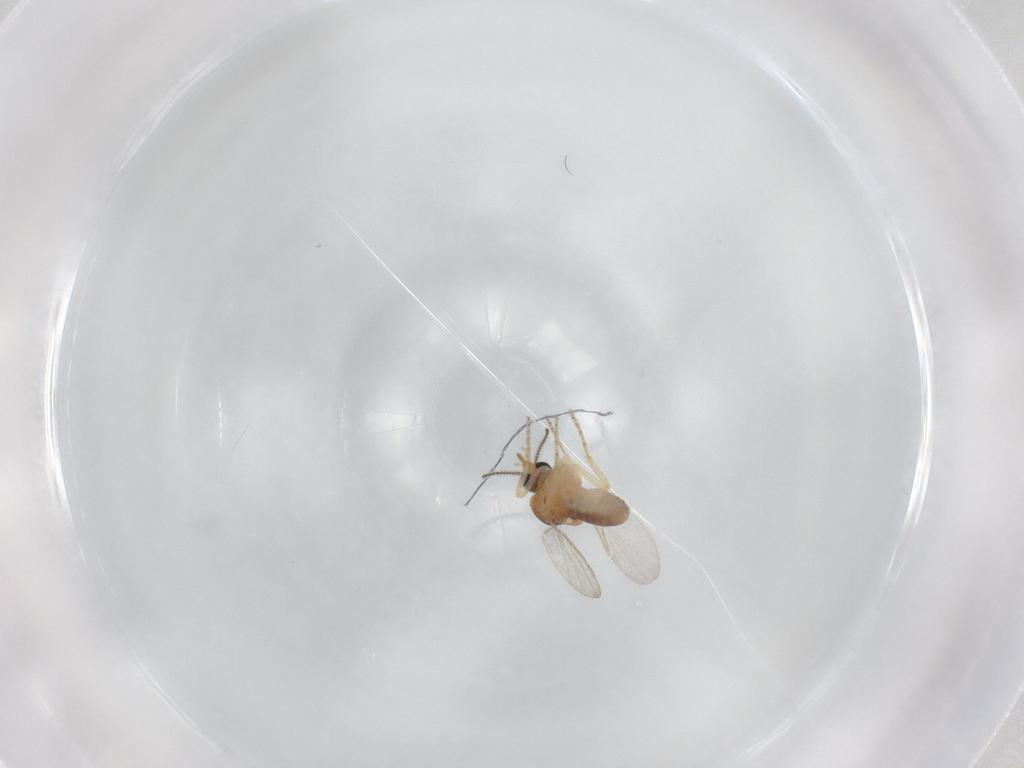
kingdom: Animalia
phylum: Arthropoda
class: Insecta
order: Diptera
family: Ceratopogonidae
